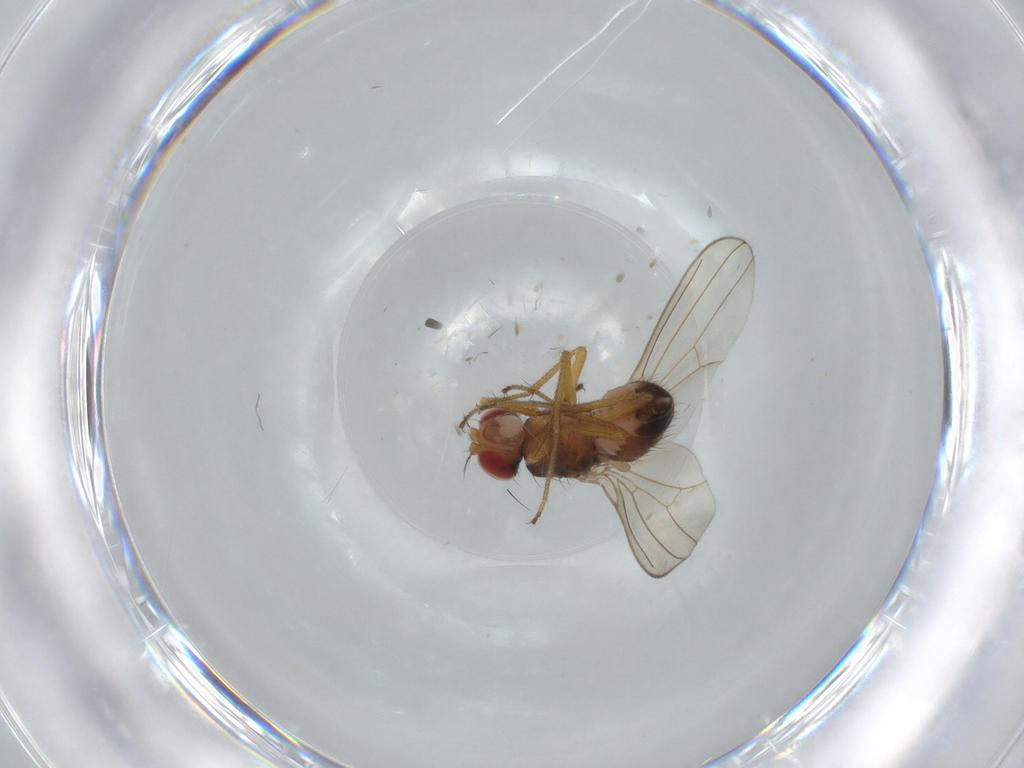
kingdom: Animalia
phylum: Arthropoda
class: Insecta
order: Diptera
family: Drosophilidae
